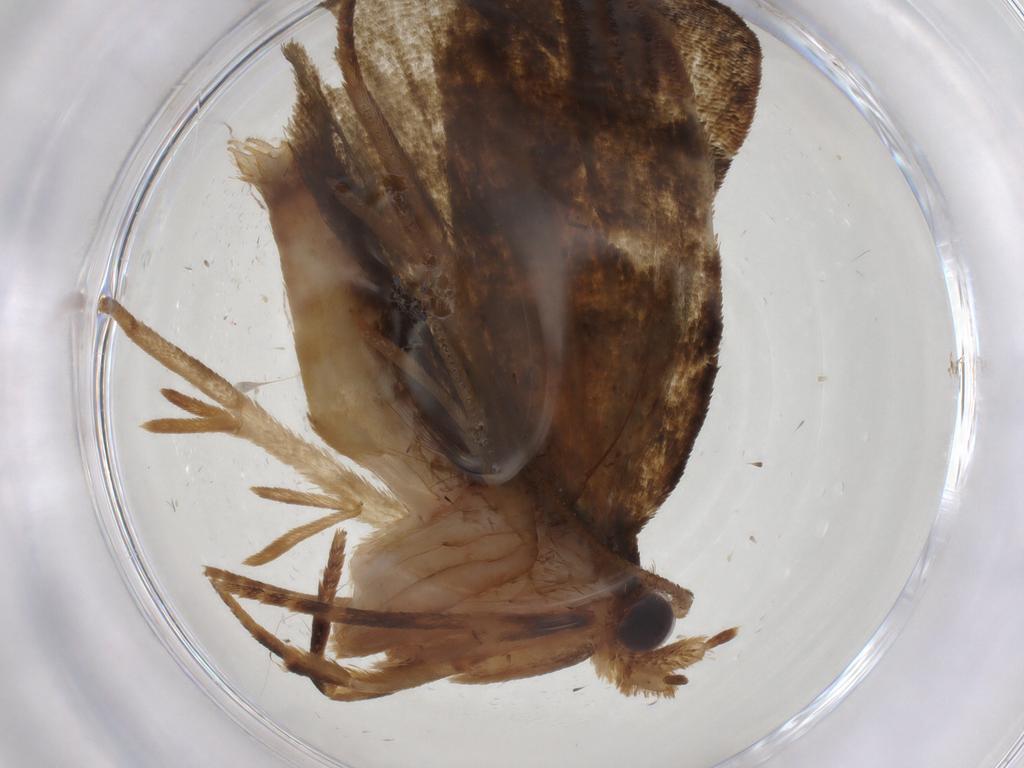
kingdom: Animalia
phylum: Arthropoda
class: Insecta
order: Lepidoptera
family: Geometridae
